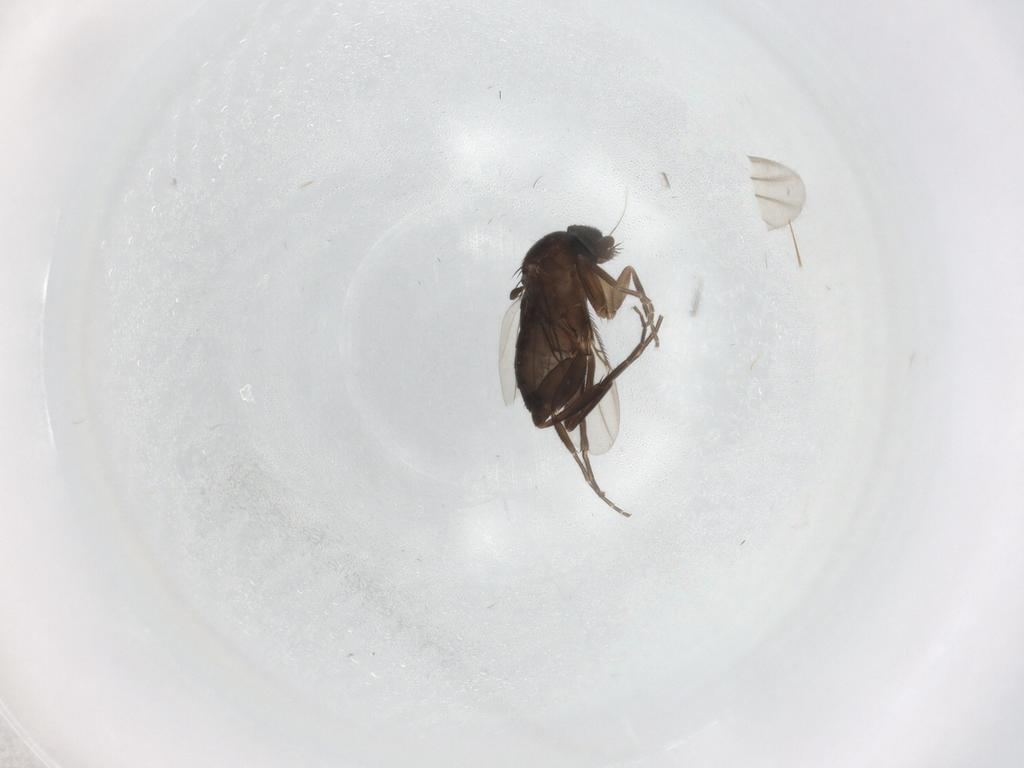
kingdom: Animalia
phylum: Arthropoda
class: Insecta
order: Diptera
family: Phoridae
